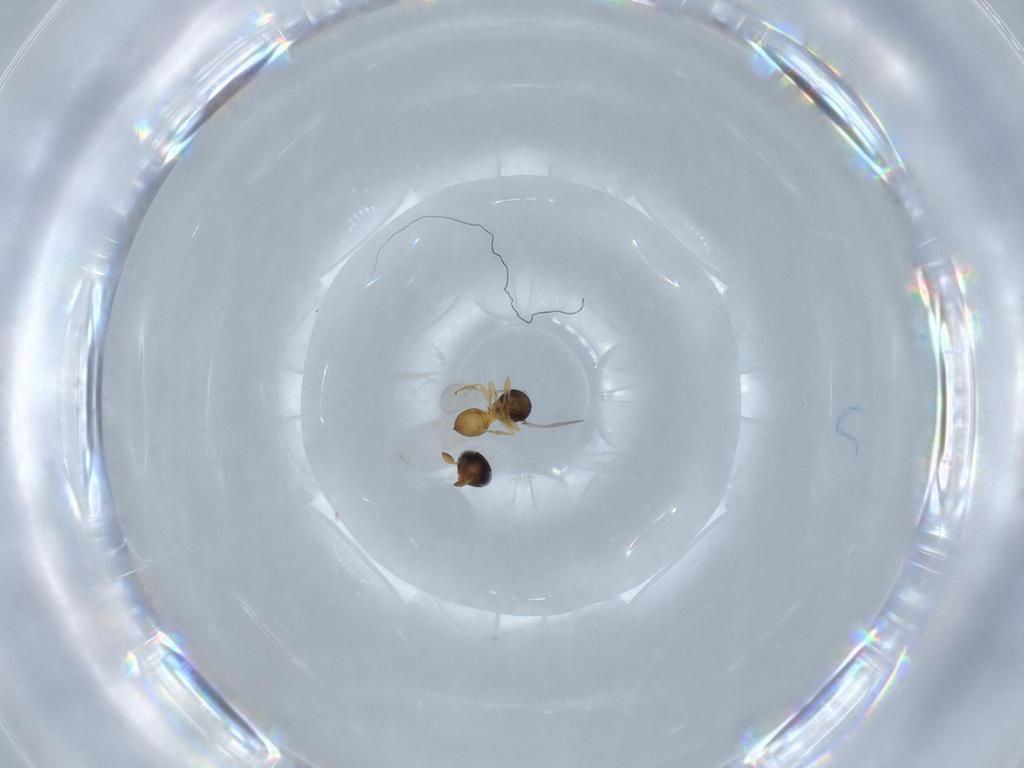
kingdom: Animalia
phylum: Arthropoda
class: Insecta
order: Hymenoptera
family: Scelionidae
